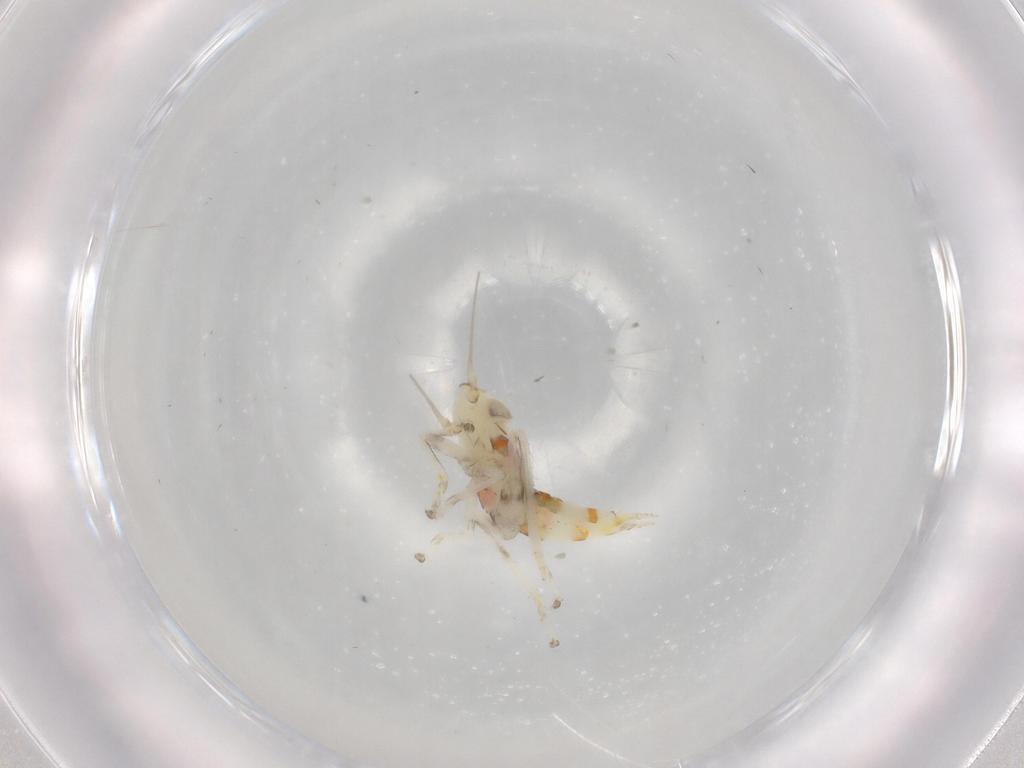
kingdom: Animalia
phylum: Arthropoda
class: Insecta
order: Hemiptera
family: Cicadellidae
